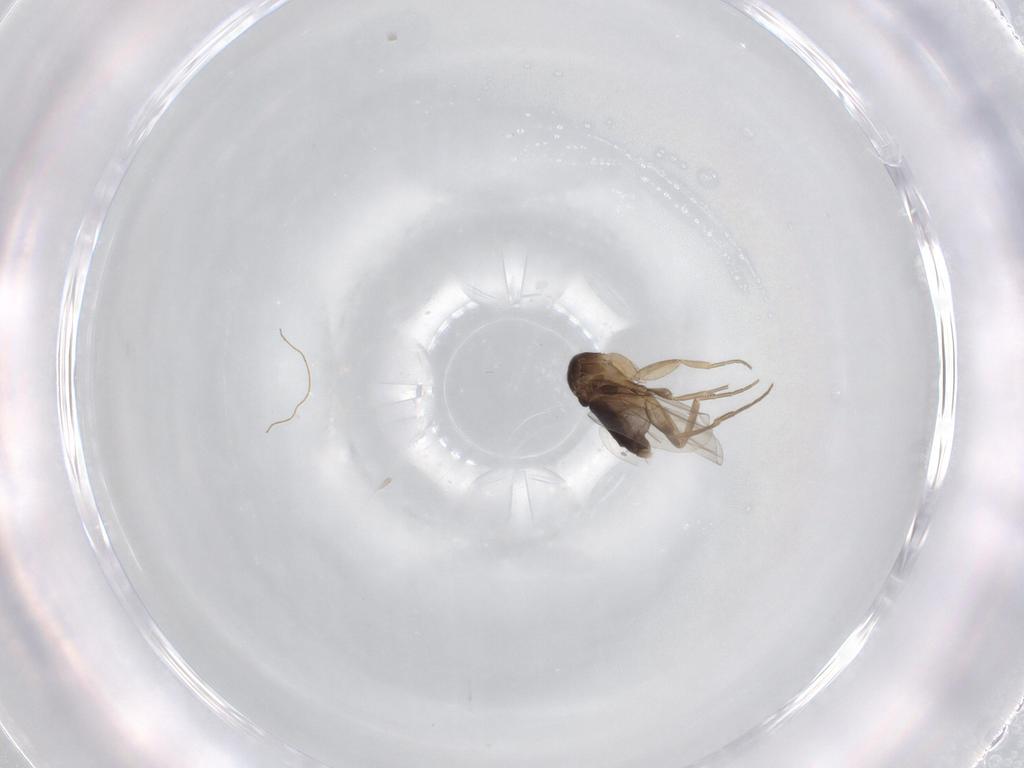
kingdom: Animalia
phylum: Arthropoda
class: Insecta
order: Diptera
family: Phoridae
